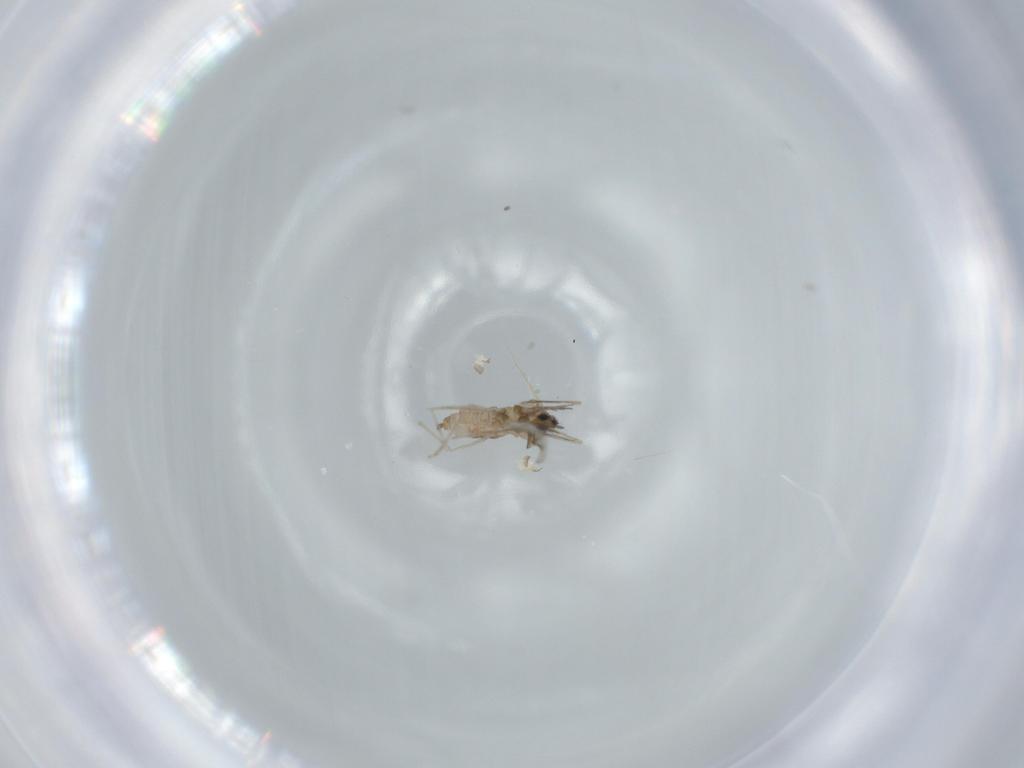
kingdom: Animalia
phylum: Arthropoda
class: Insecta
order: Diptera
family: Cecidomyiidae
